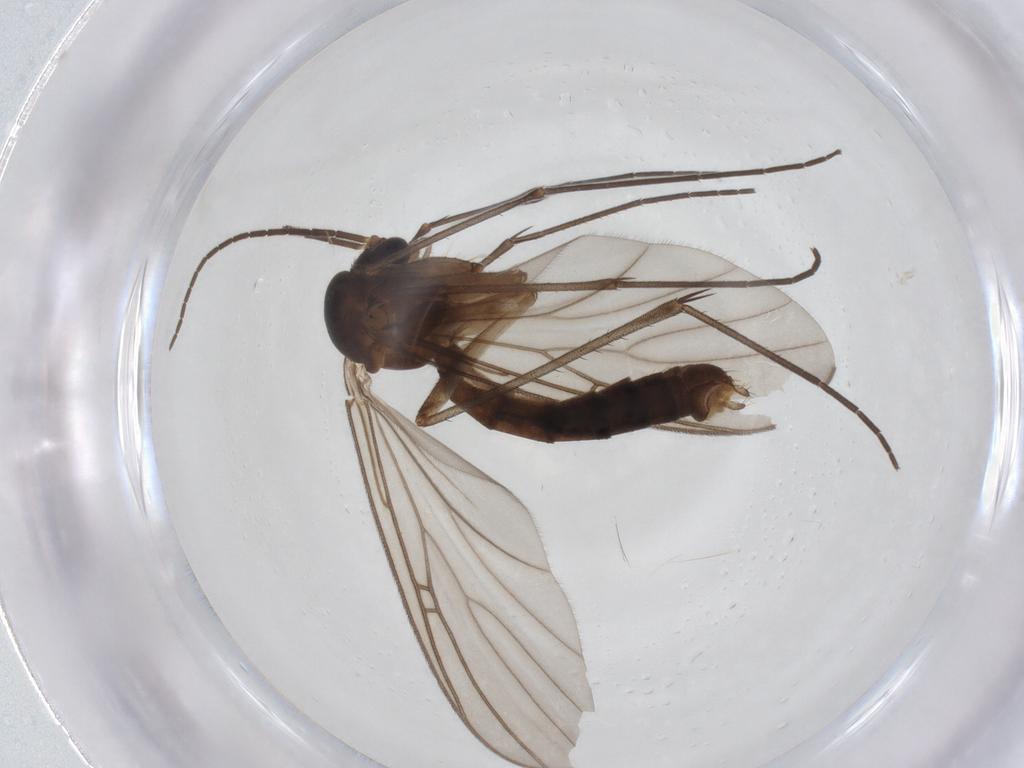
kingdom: Animalia
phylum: Arthropoda
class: Insecta
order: Diptera
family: Mycetophilidae
